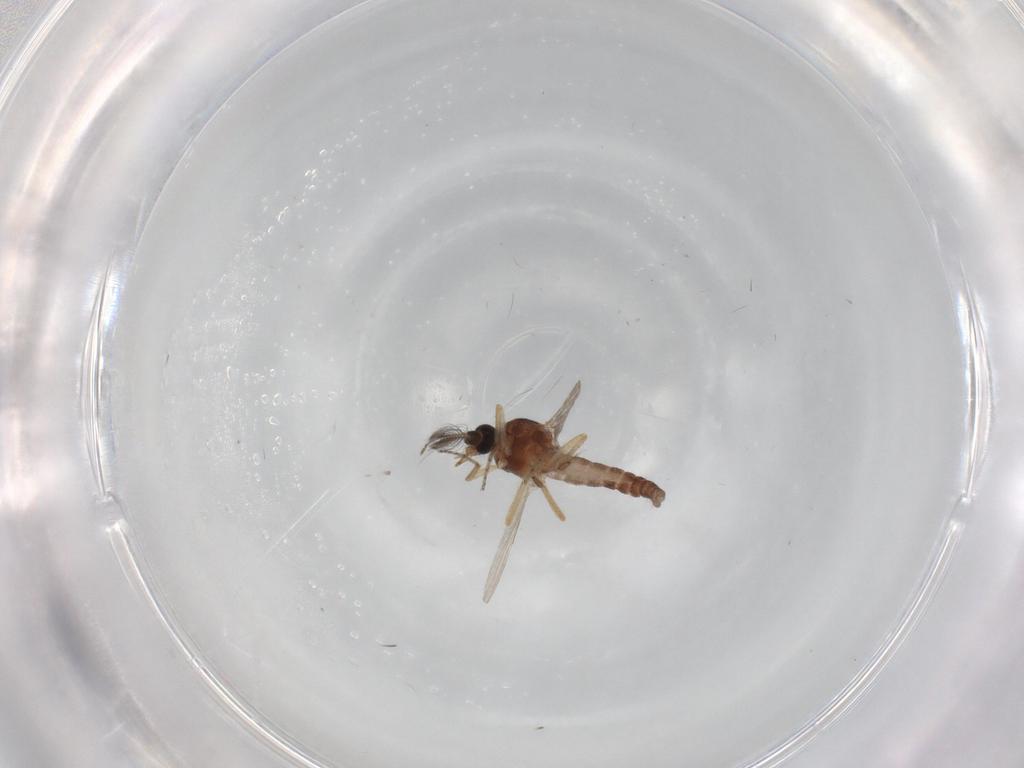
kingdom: Animalia
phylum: Arthropoda
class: Insecta
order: Diptera
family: Ceratopogonidae
